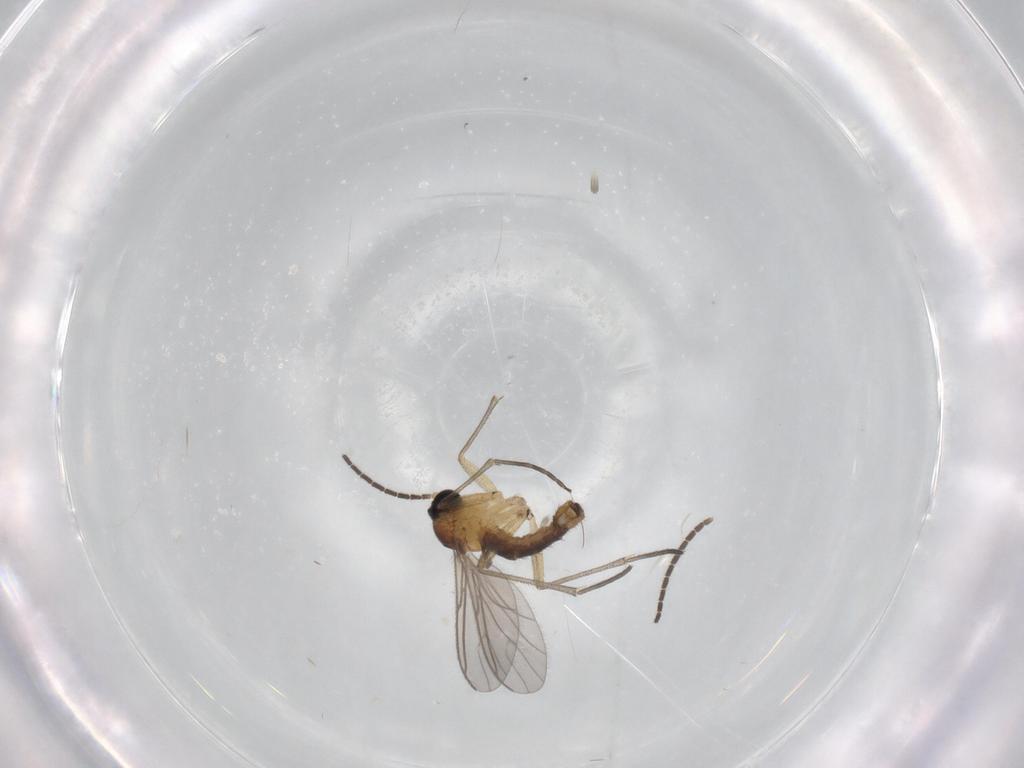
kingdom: Animalia
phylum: Arthropoda
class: Insecta
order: Diptera
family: Sciaridae
